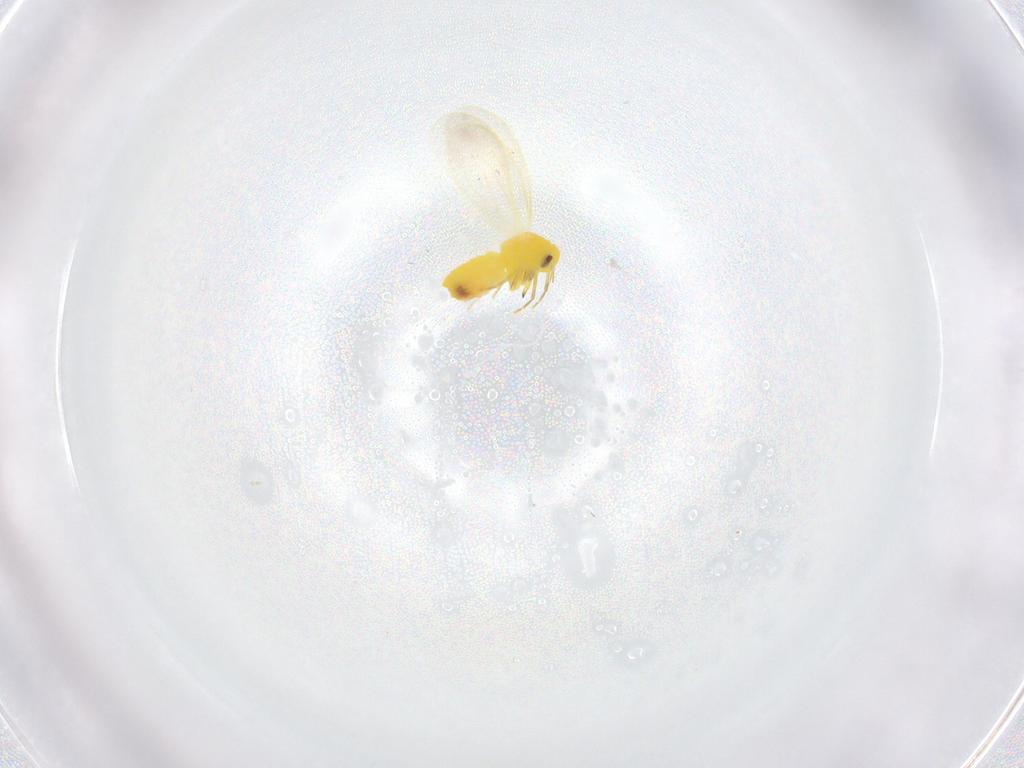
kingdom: Animalia
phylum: Arthropoda
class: Insecta
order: Hemiptera
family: Aleyrodidae
